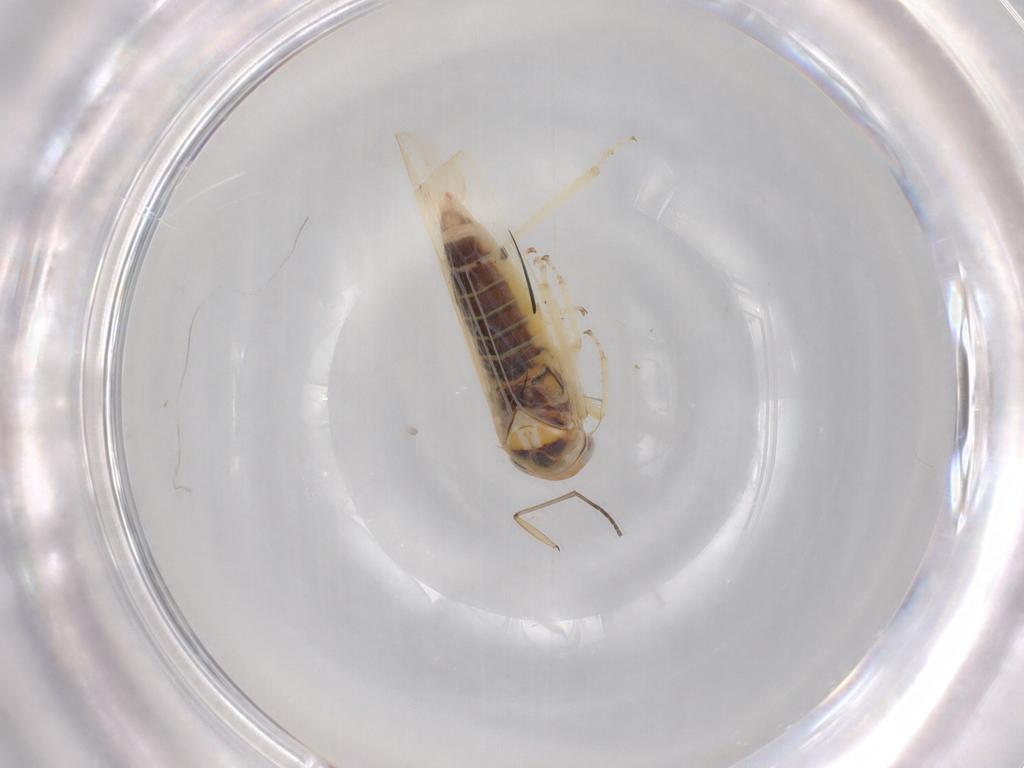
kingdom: Animalia
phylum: Arthropoda
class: Insecta
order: Hemiptera
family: Cicadellidae
